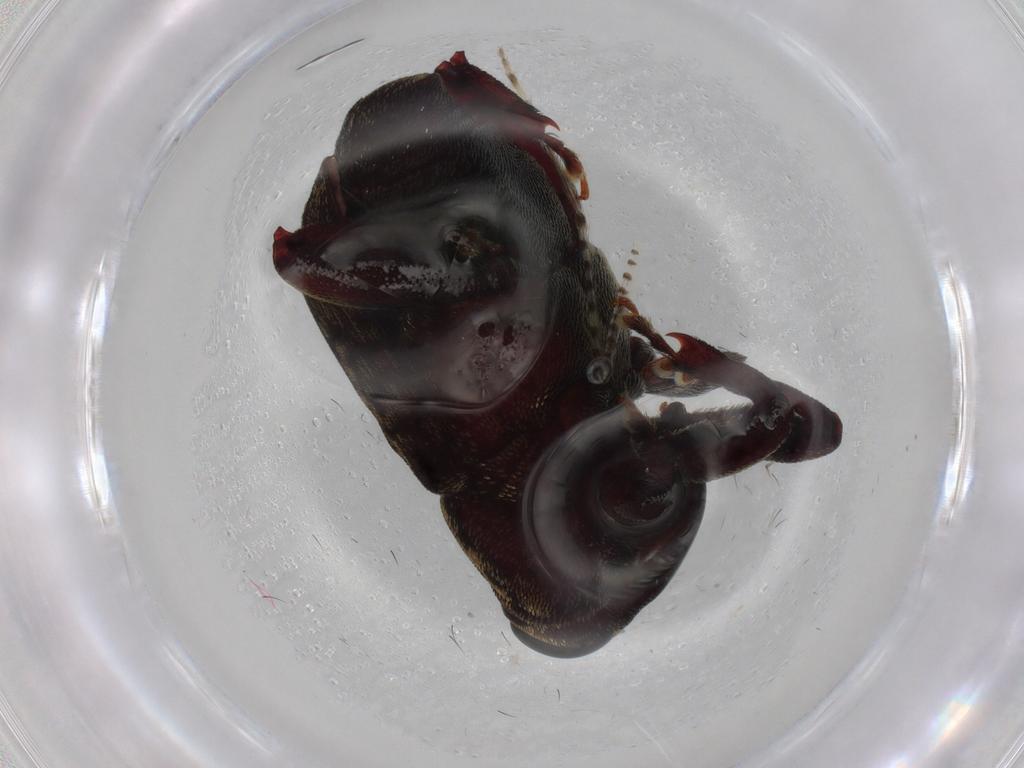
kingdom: Animalia
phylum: Arthropoda
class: Insecta
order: Coleoptera
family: Curculionidae
